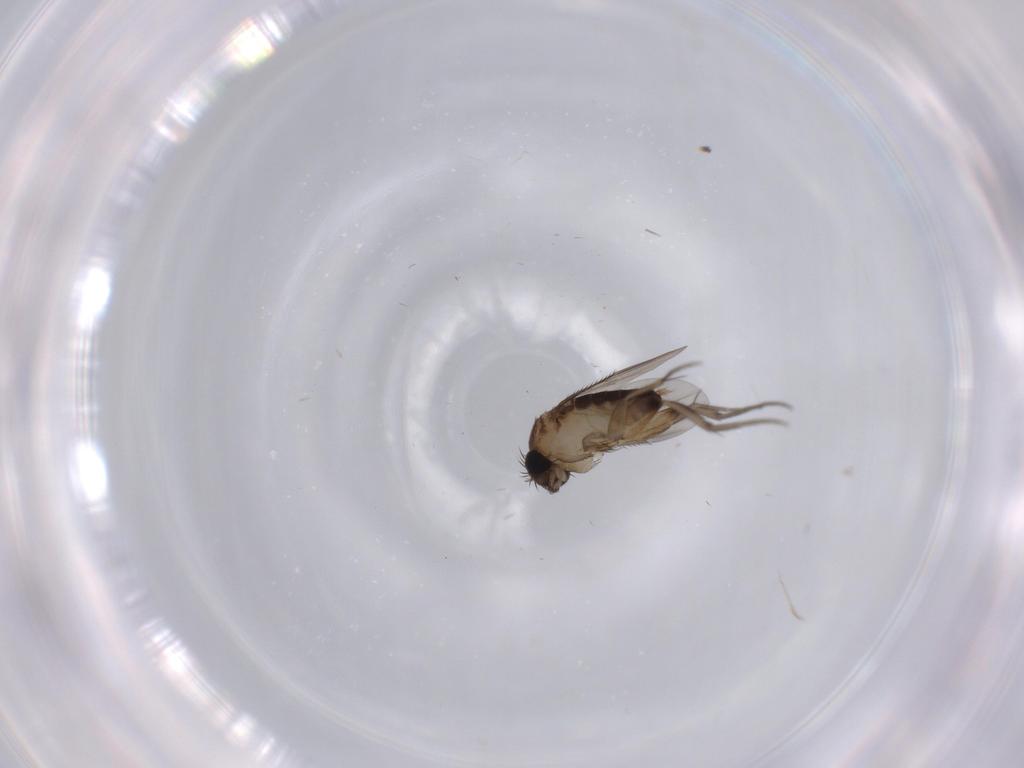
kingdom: Animalia
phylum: Arthropoda
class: Insecta
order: Diptera
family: Phoridae
